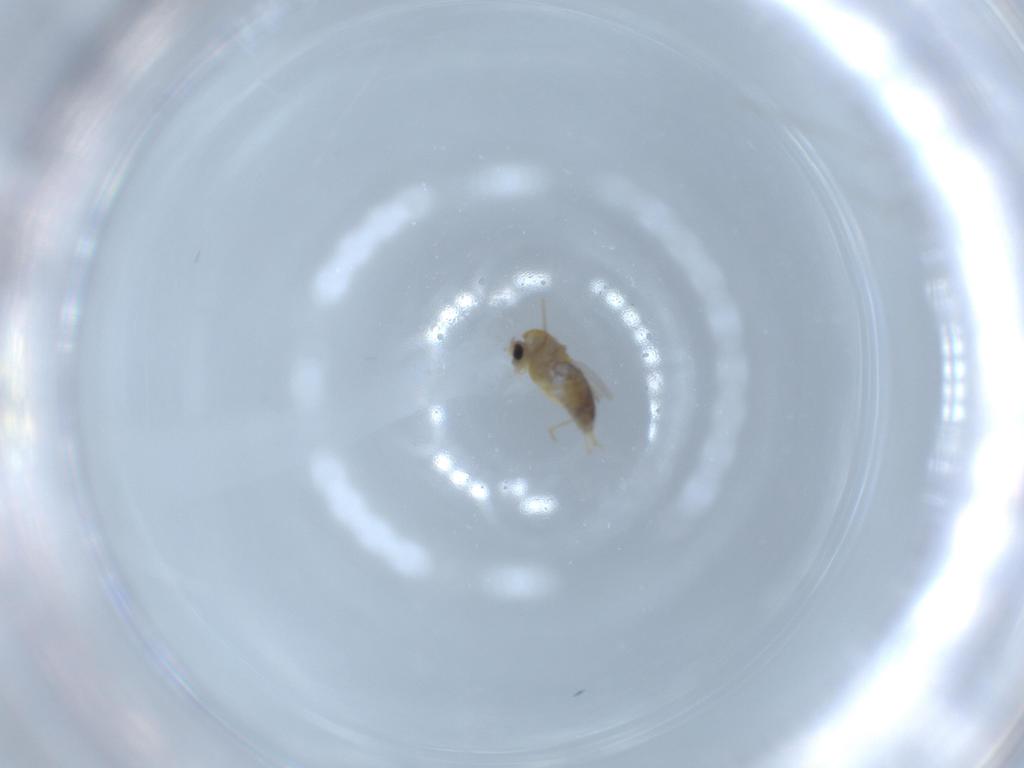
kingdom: Animalia
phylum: Arthropoda
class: Insecta
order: Diptera
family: Chironomidae
